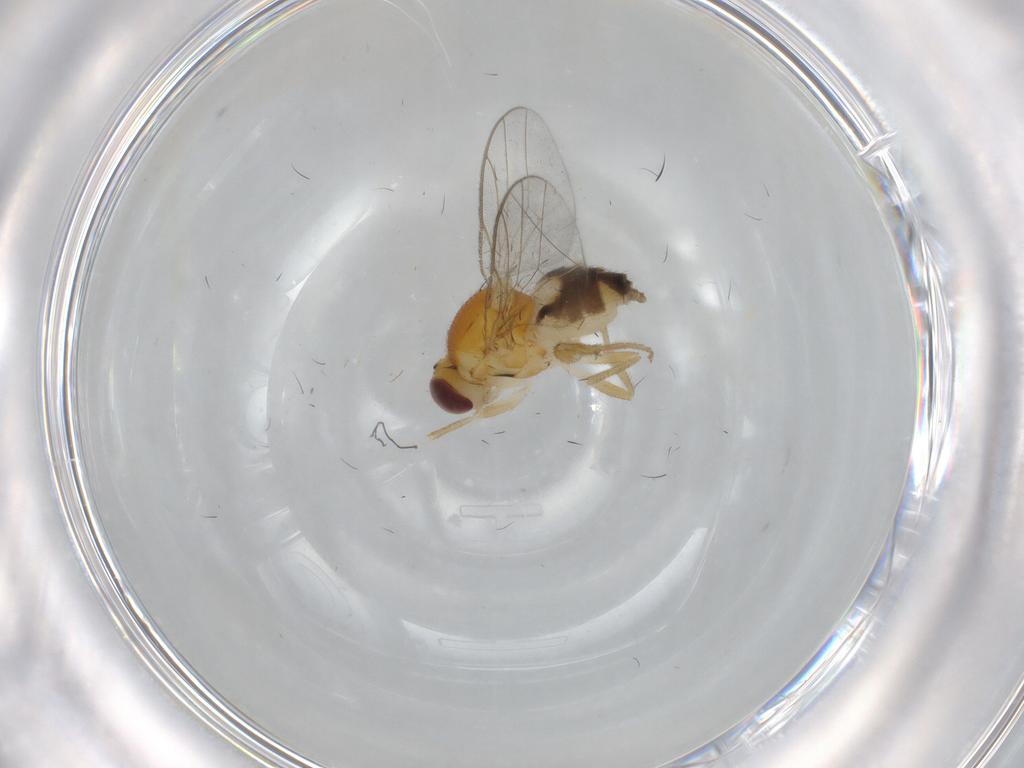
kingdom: Animalia
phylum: Arthropoda
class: Insecta
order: Diptera
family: Chloropidae
